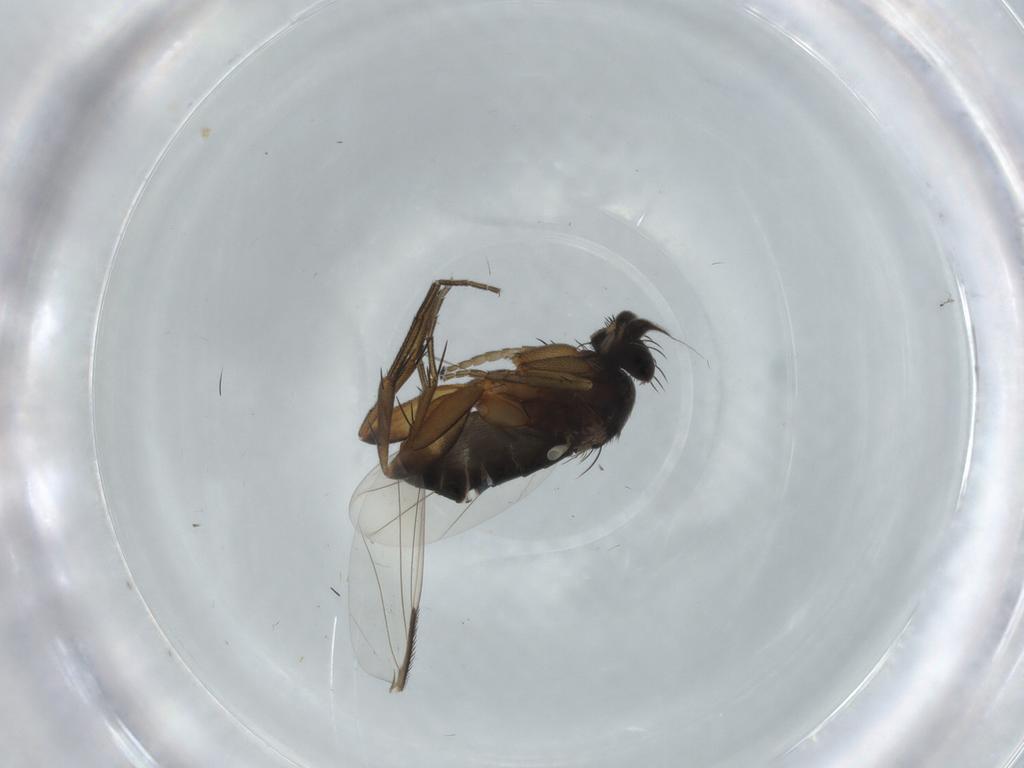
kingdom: Animalia
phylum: Arthropoda
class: Insecta
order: Diptera
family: Phoridae
